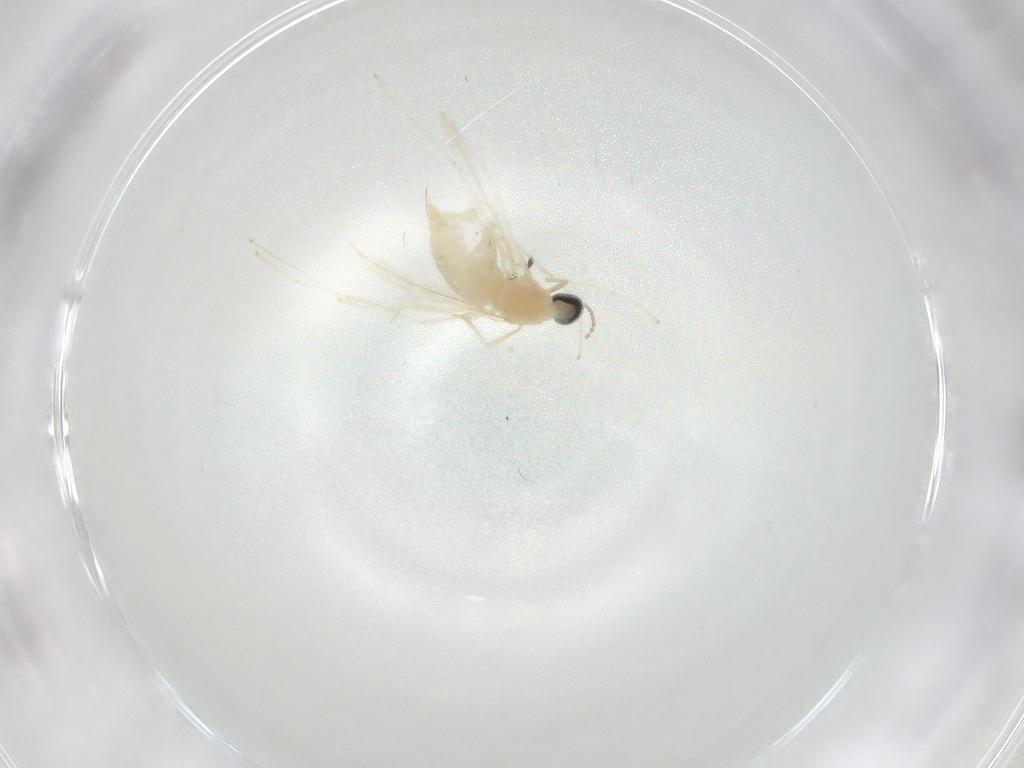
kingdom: Animalia
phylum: Arthropoda
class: Insecta
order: Diptera
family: Cecidomyiidae
